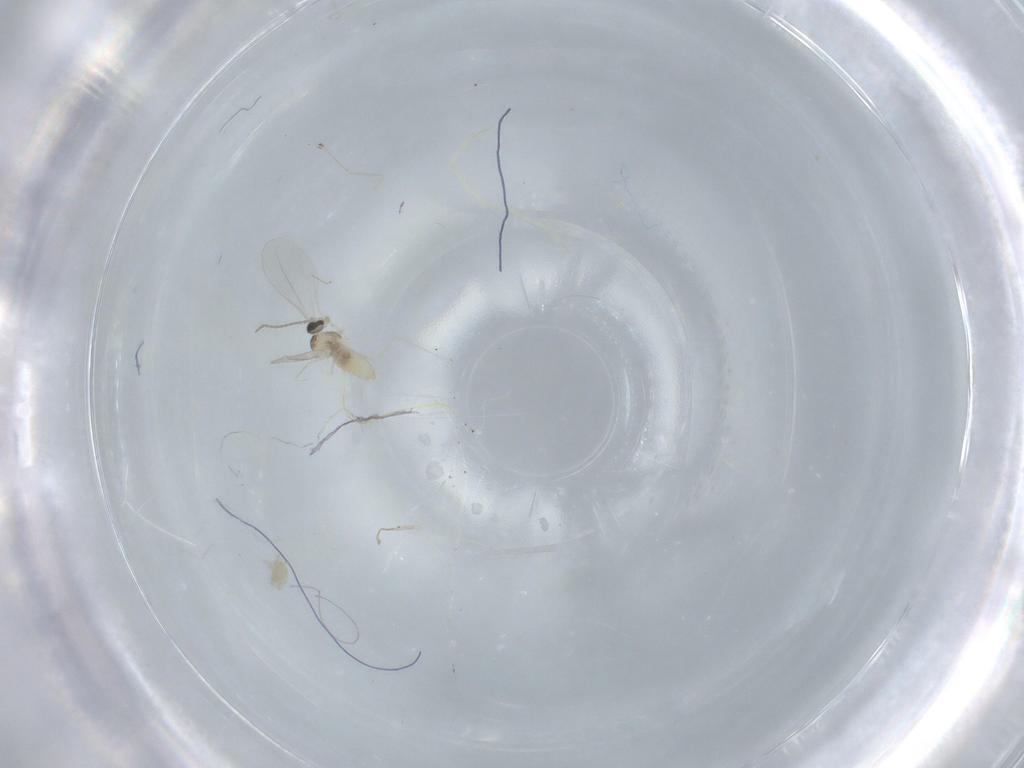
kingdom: Animalia
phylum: Arthropoda
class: Insecta
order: Diptera
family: Cecidomyiidae
